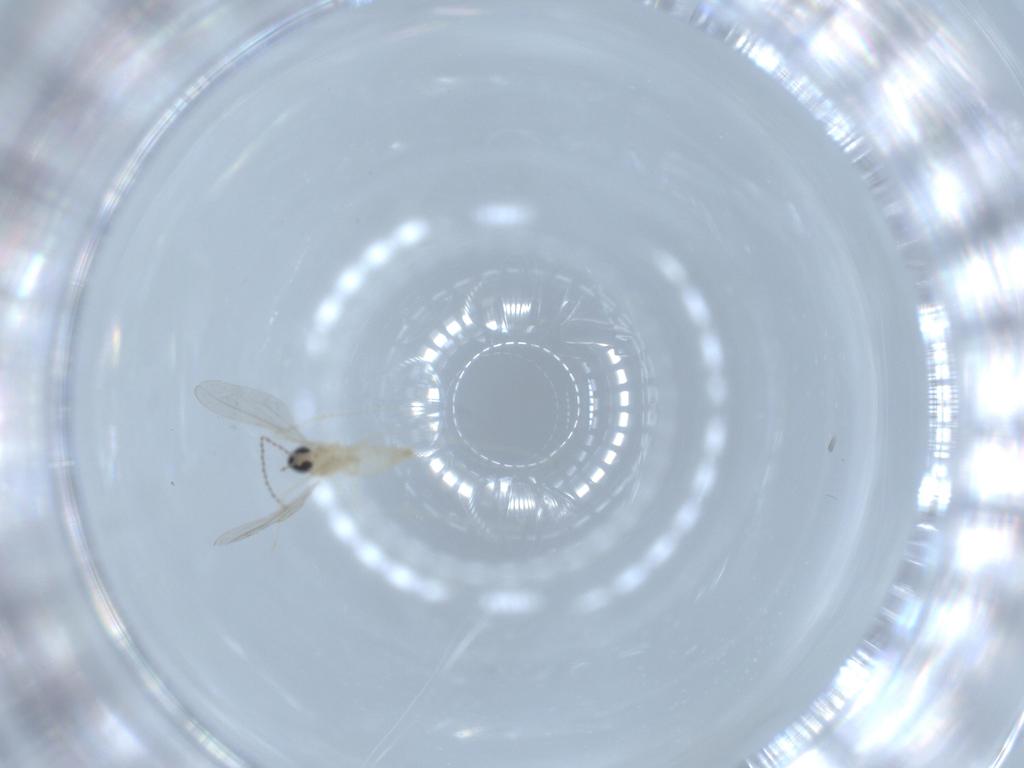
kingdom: Animalia
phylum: Arthropoda
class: Insecta
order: Diptera
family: Cecidomyiidae
